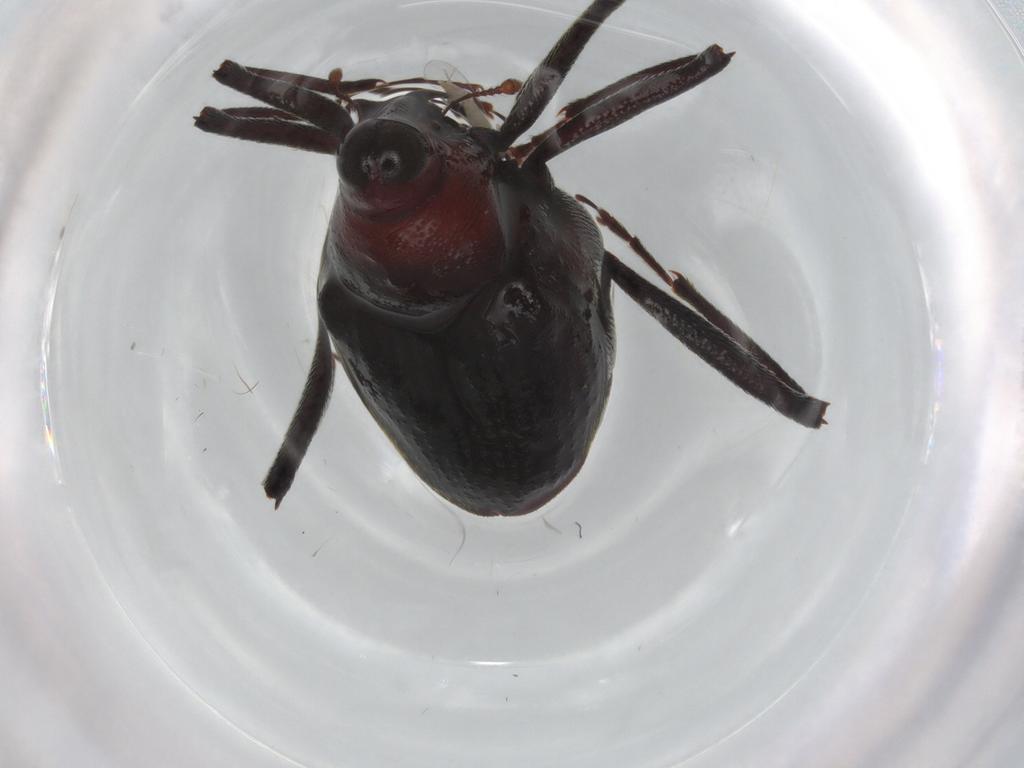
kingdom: Animalia
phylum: Arthropoda
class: Insecta
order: Coleoptera
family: Curculionidae
